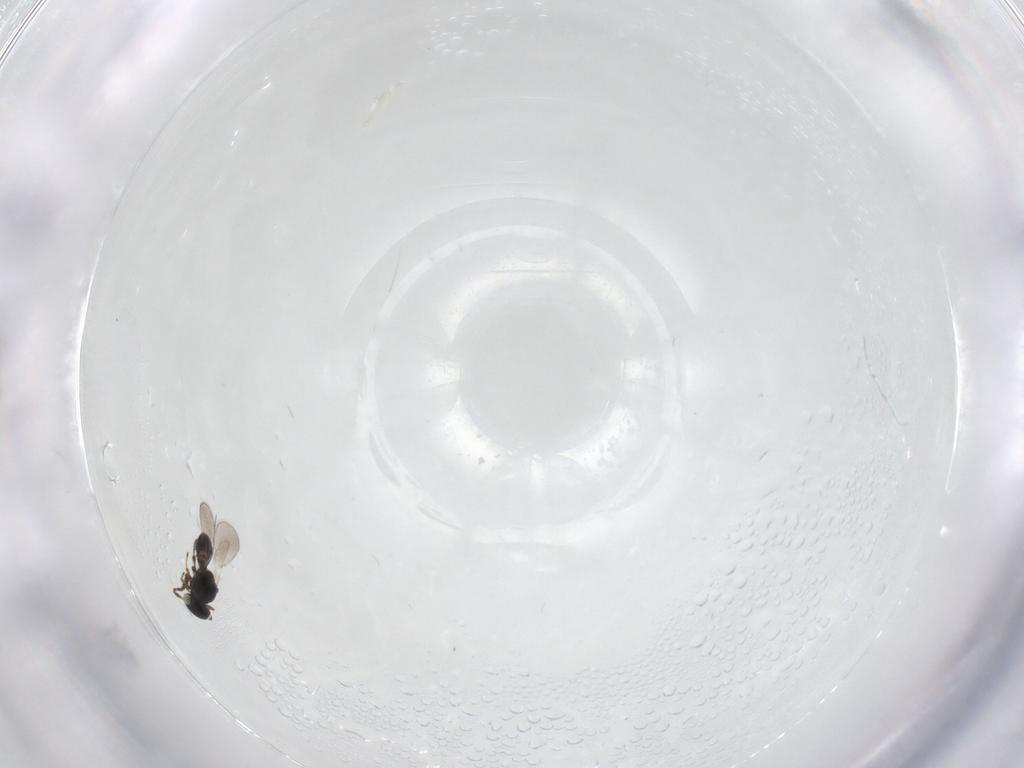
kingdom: Animalia
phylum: Arthropoda
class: Insecta
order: Hymenoptera
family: Platygastridae
